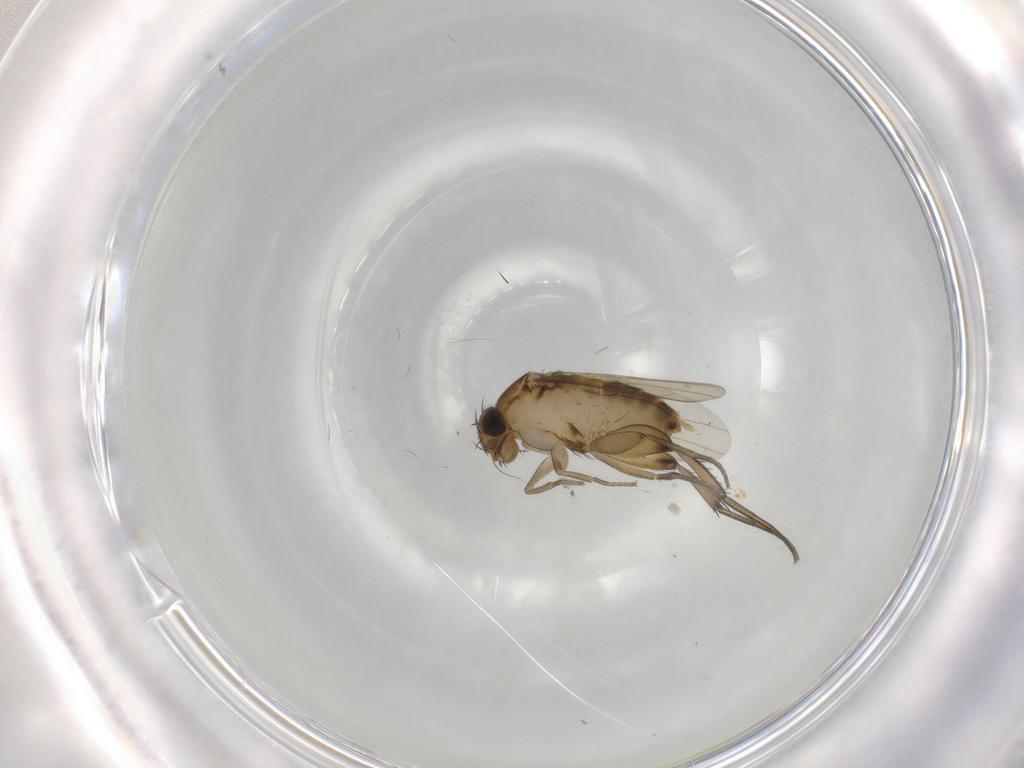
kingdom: Animalia
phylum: Arthropoda
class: Insecta
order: Diptera
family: Phoridae
